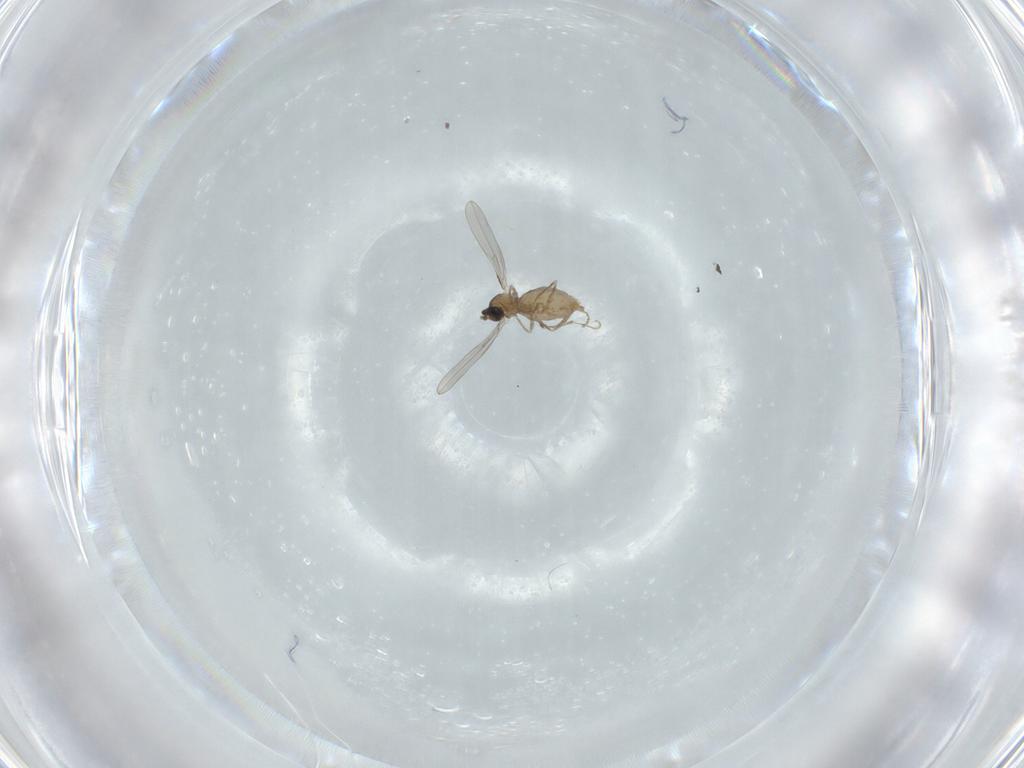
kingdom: Animalia
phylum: Arthropoda
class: Insecta
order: Diptera
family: Cecidomyiidae
